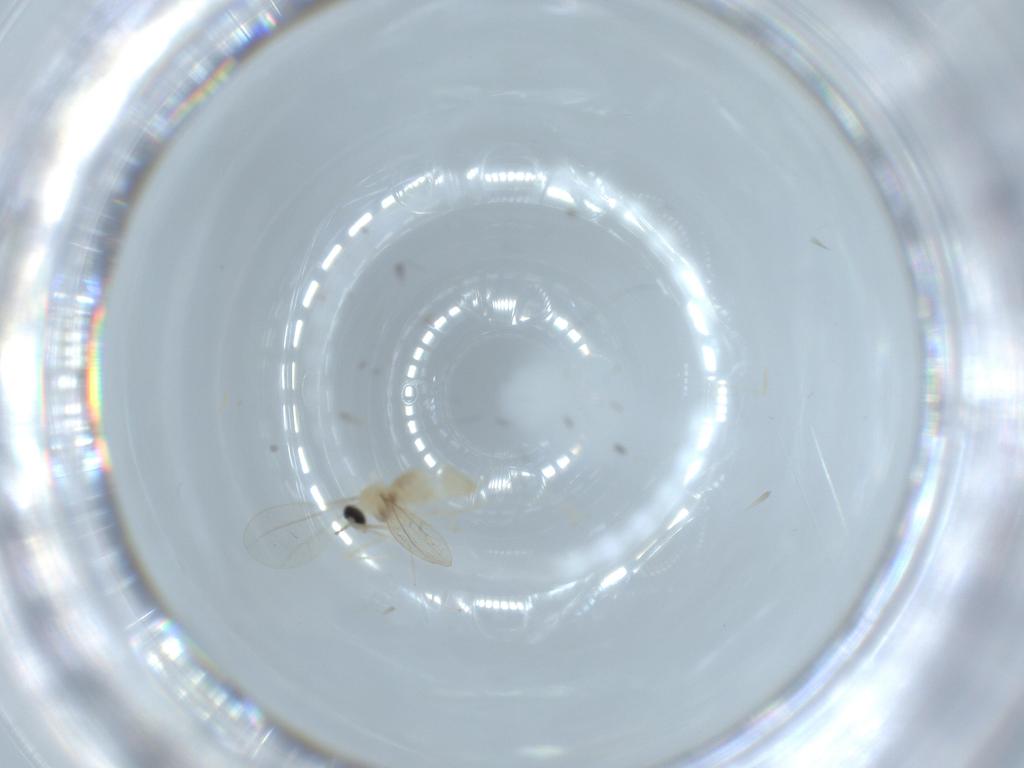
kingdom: Animalia
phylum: Arthropoda
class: Insecta
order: Diptera
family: Cecidomyiidae
